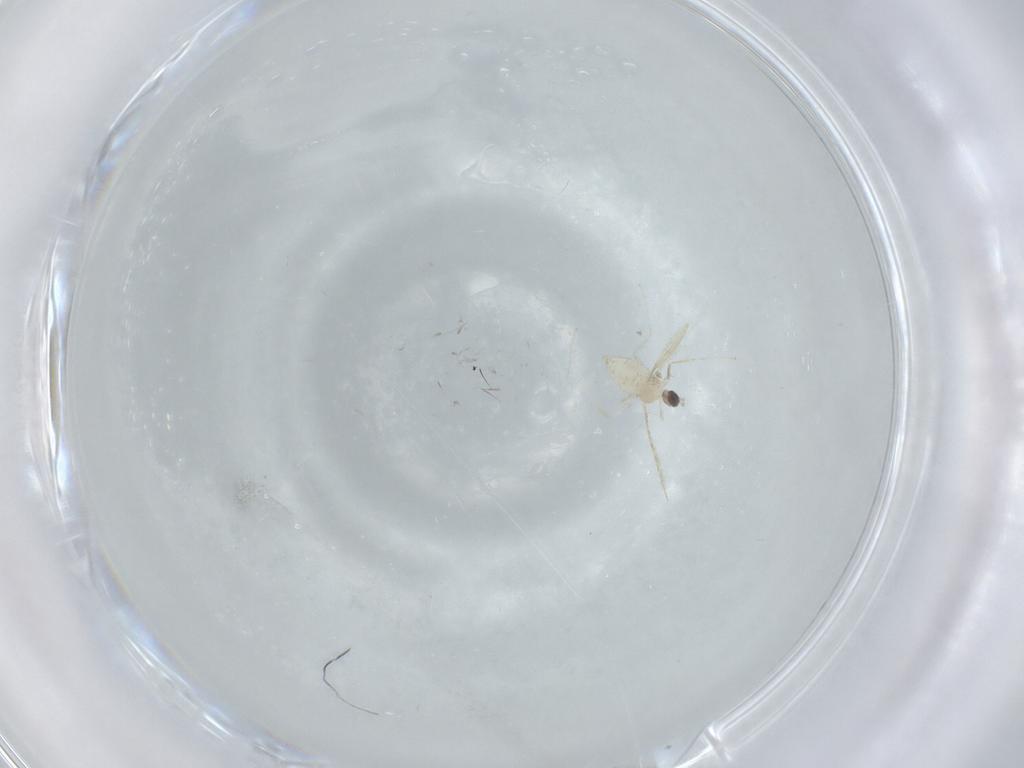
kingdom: Animalia
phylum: Arthropoda
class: Insecta
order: Diptera
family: Cecidomyiidae
